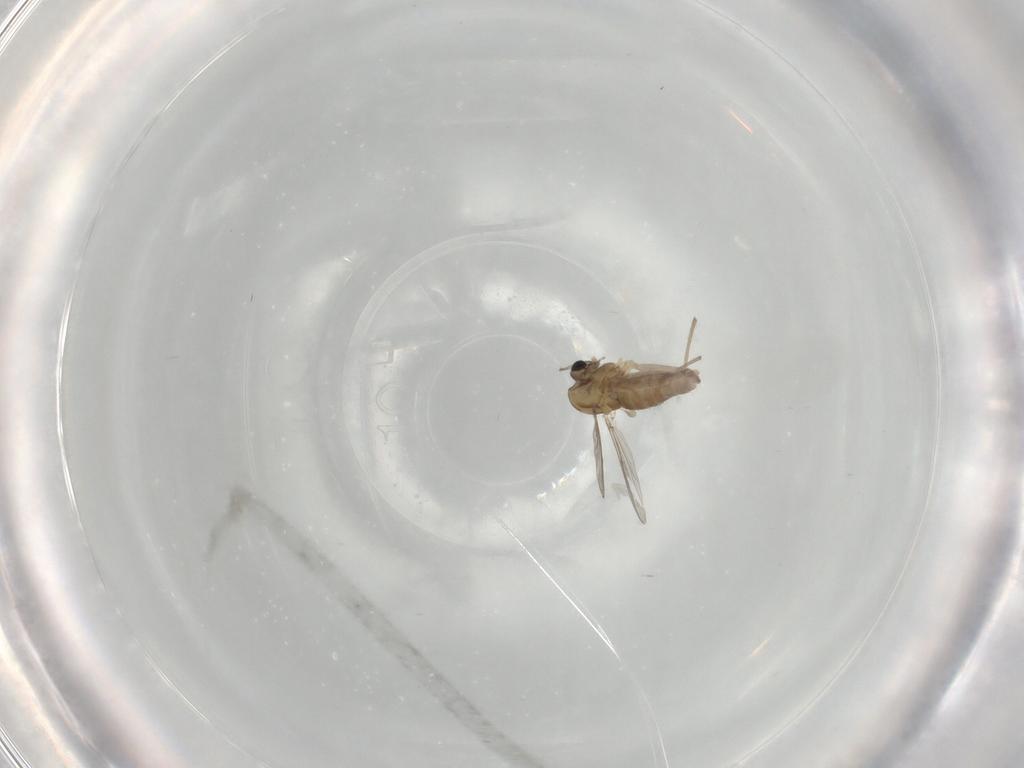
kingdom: Animalia
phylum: Arthropoda
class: Insecta
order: Diptera
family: Chironomidae
